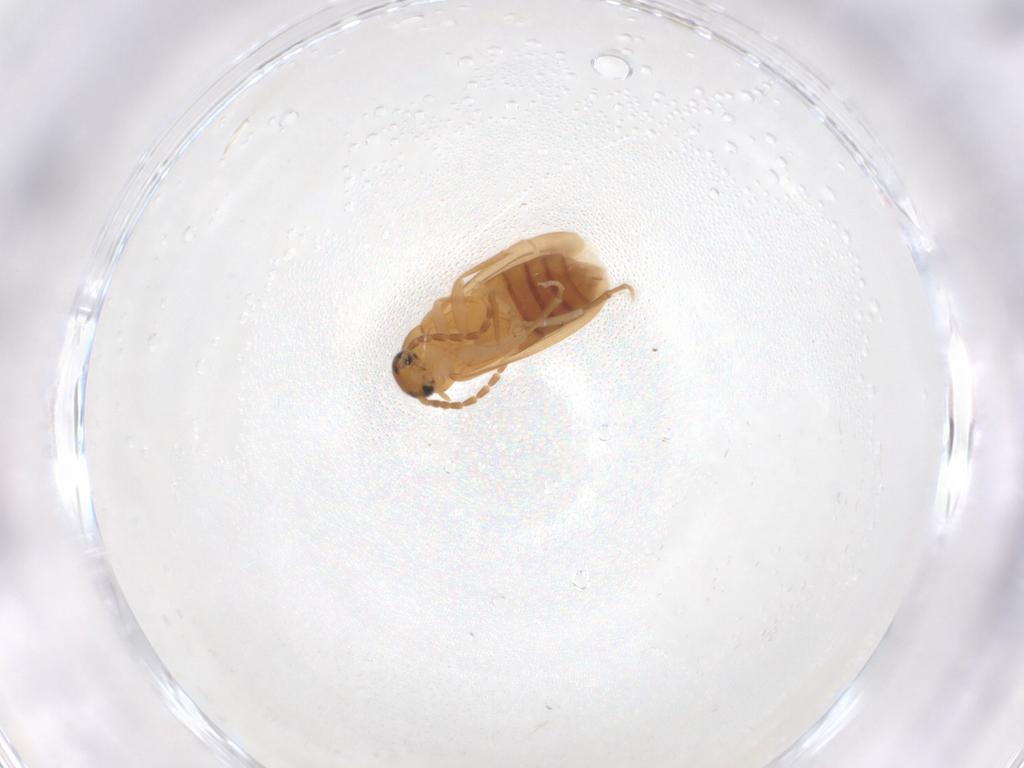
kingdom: Animalia
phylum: Arthropoda
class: Insecta
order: Coleoptera
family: Scraptiidae
